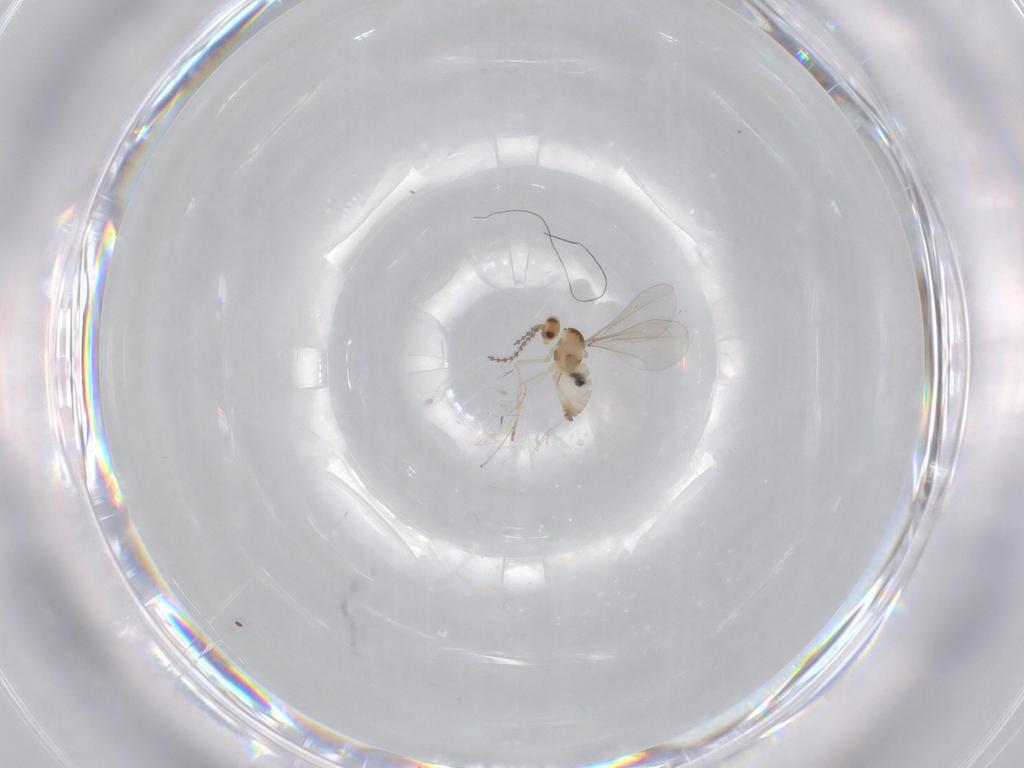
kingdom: Animalia
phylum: Arthropoda
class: Insecta
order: Diptera
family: Cecidomyiidae
